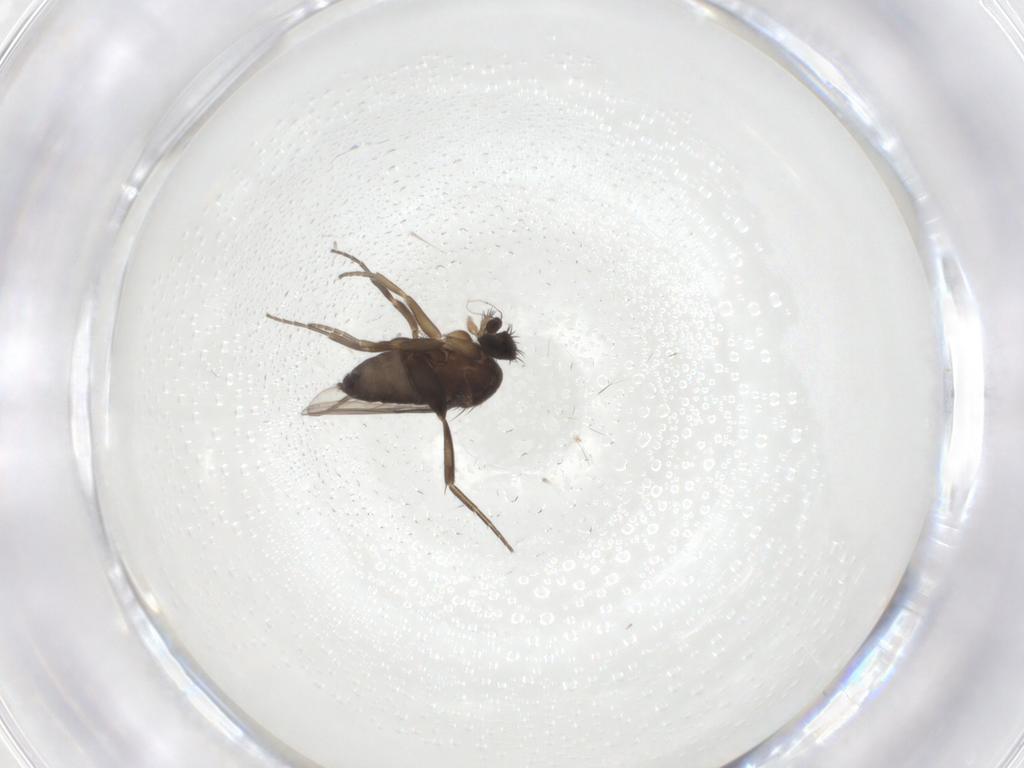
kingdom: Animalia
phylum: Arthropoda
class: Insecta
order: Diptera
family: Phoridae
